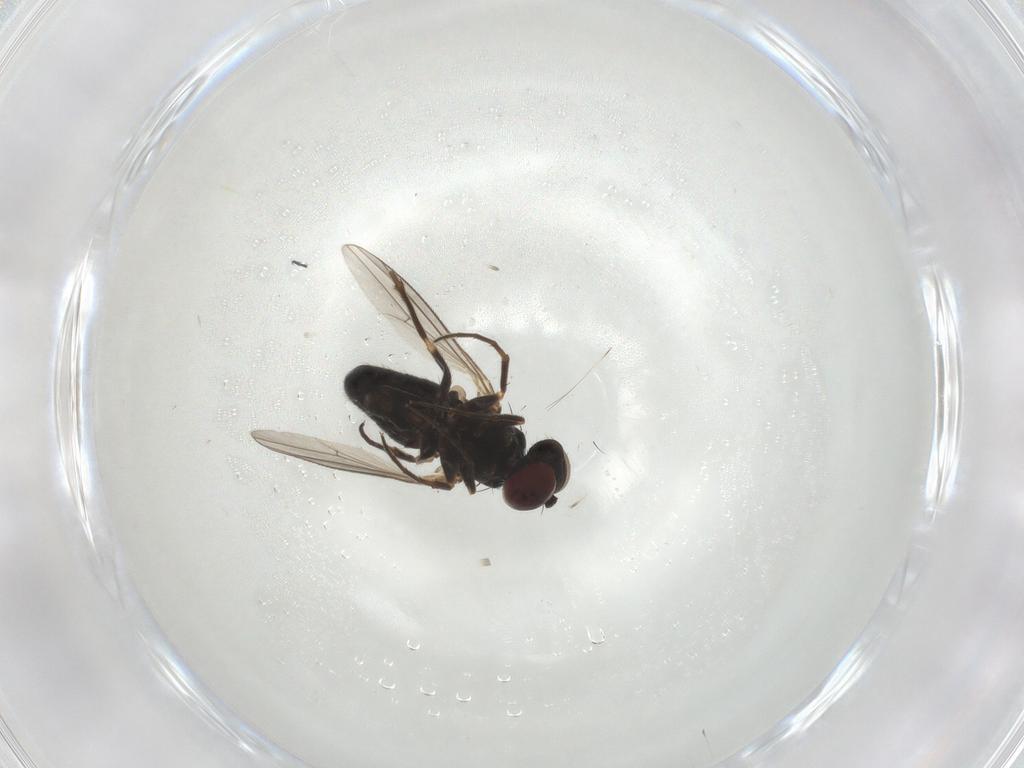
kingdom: Animalia
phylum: Arthropoda
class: Insecta
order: Diptera
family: Dolichopodidae
